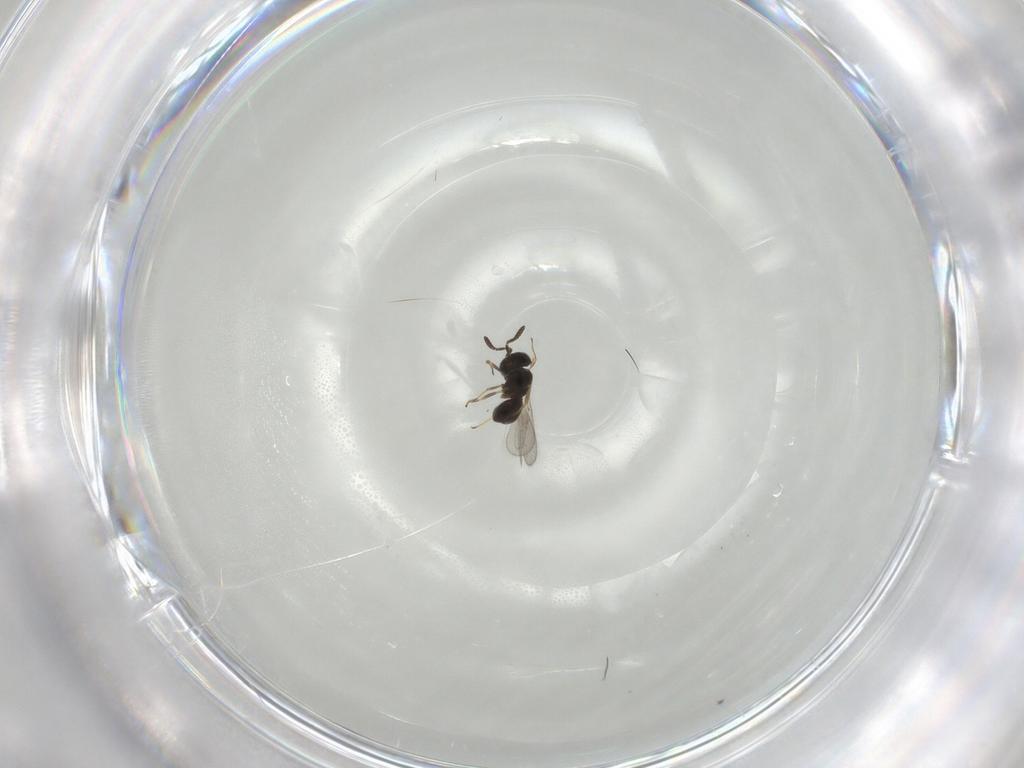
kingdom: Animalia
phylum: Arthropoda
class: Insecta
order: Hymenoptera
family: Scelionidae
